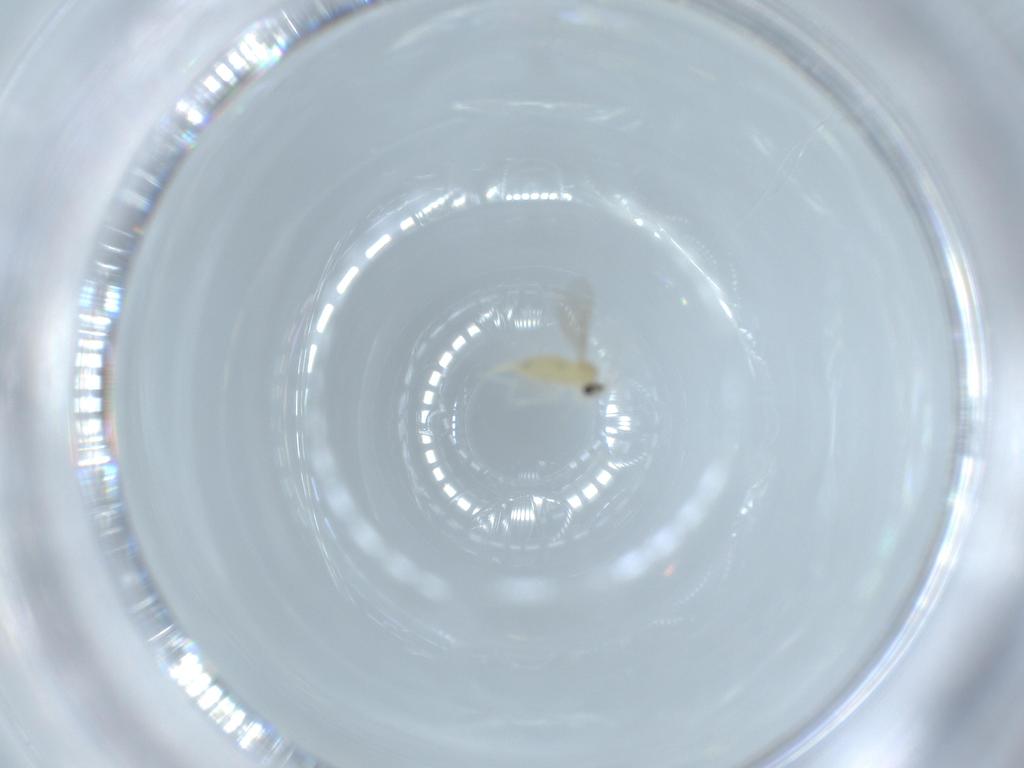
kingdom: Animalia
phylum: Arthropoda
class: Insecta
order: Diptera
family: Cecidomyiidae
